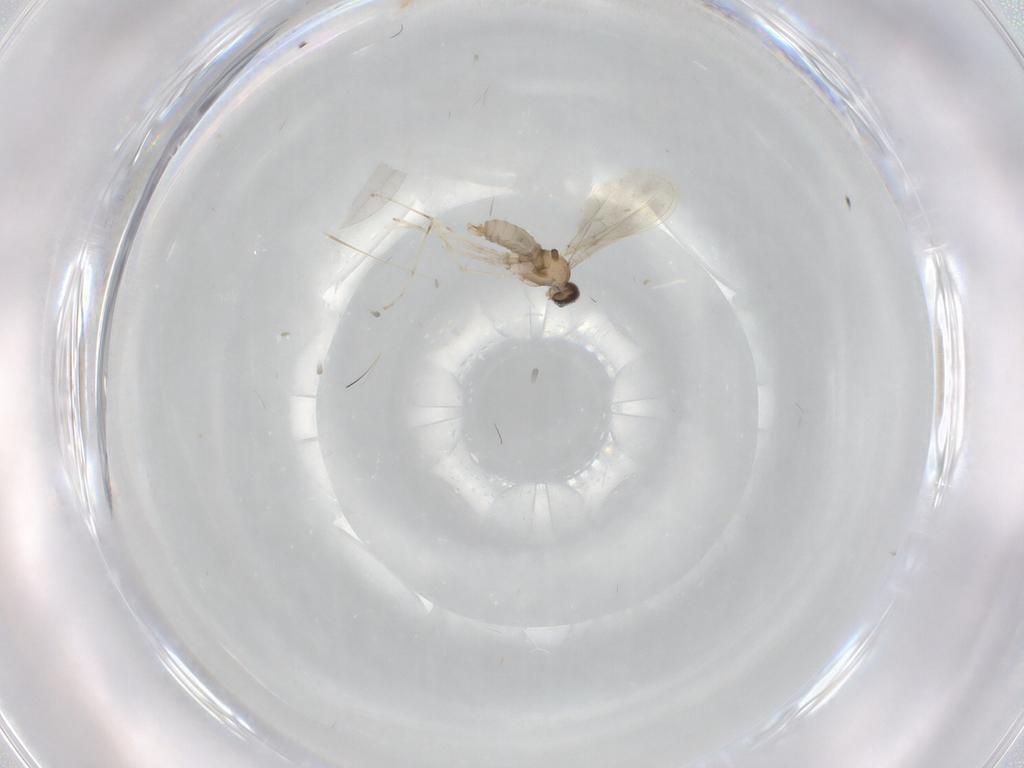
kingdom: Animalia
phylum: Arthropoda
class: Insecta
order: Diptera
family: Cecidomyiidae
